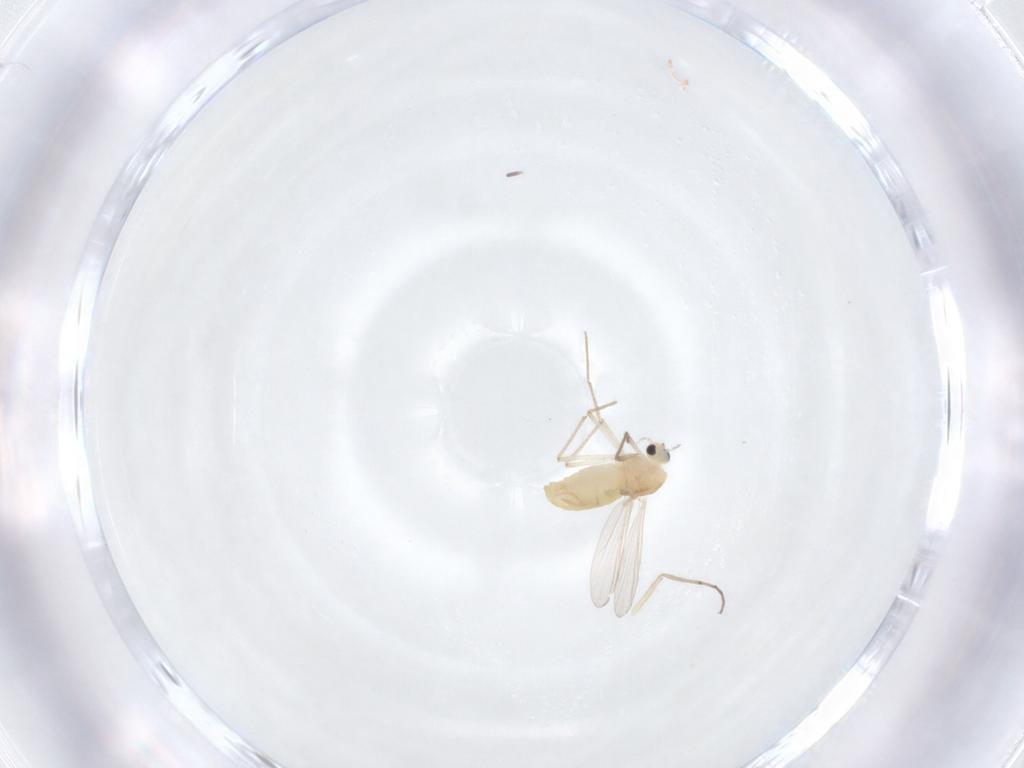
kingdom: Animalia
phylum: Arthropoda
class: Insecta
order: Diptera
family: Chironomidae
